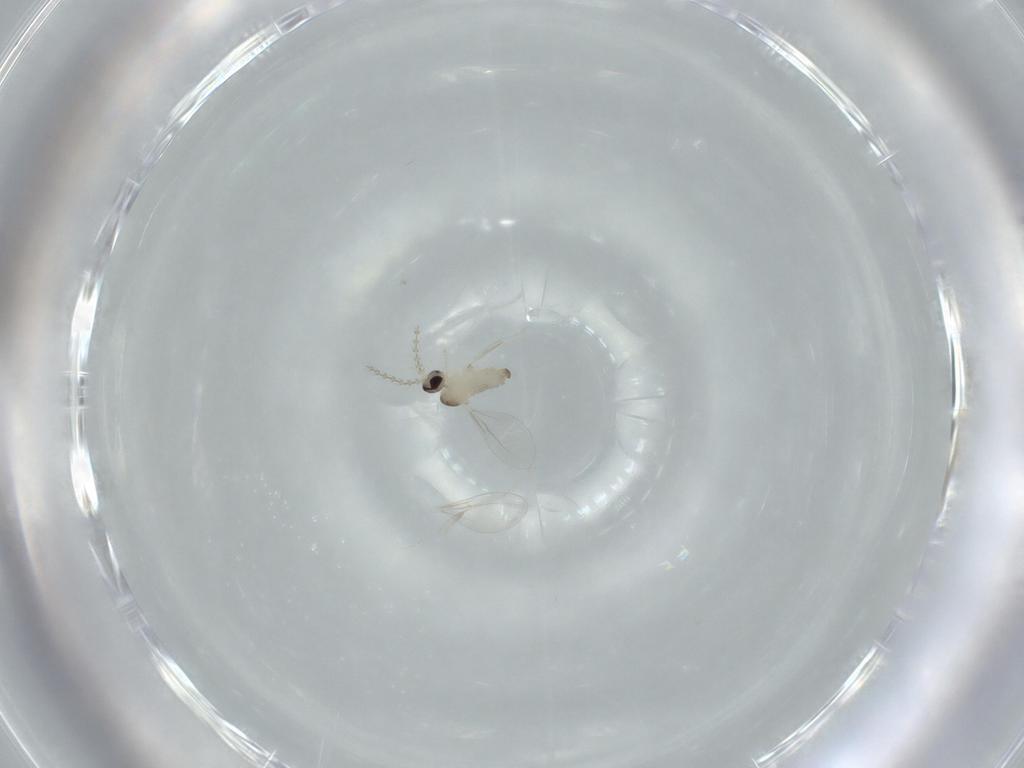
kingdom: Animalia
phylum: Arthropoda
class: Insecta
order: Diptera
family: Cecidomyiidae
